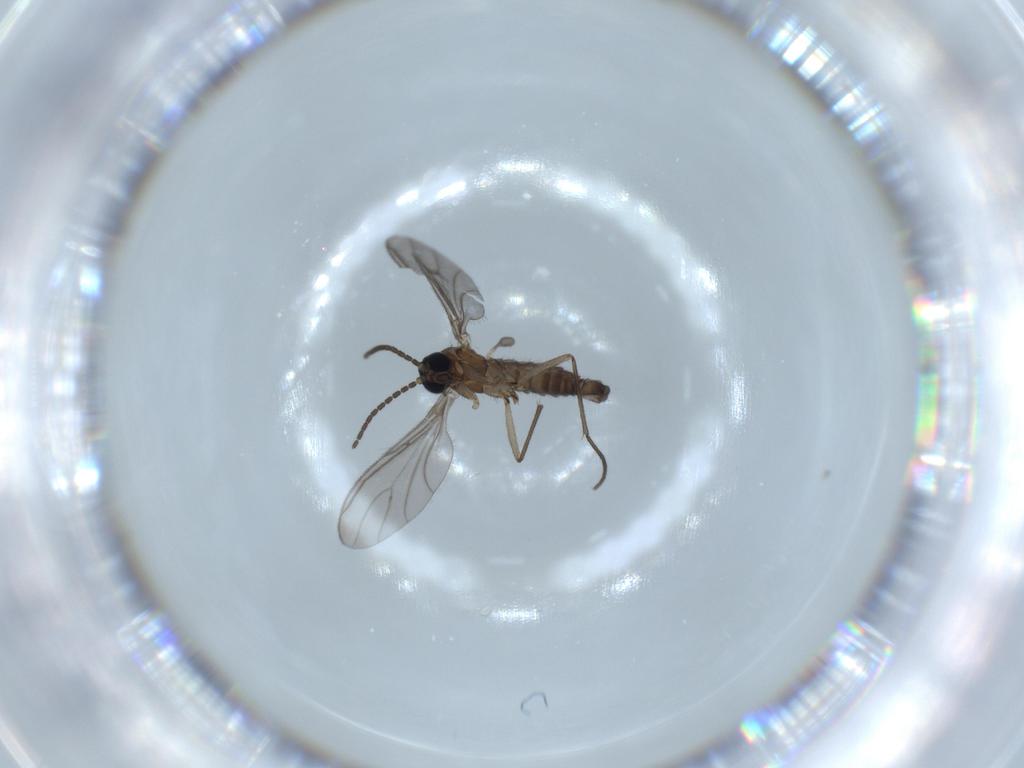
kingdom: Animalia
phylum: Arthropoda
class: Insecta
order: Diptera
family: Sciaridae
